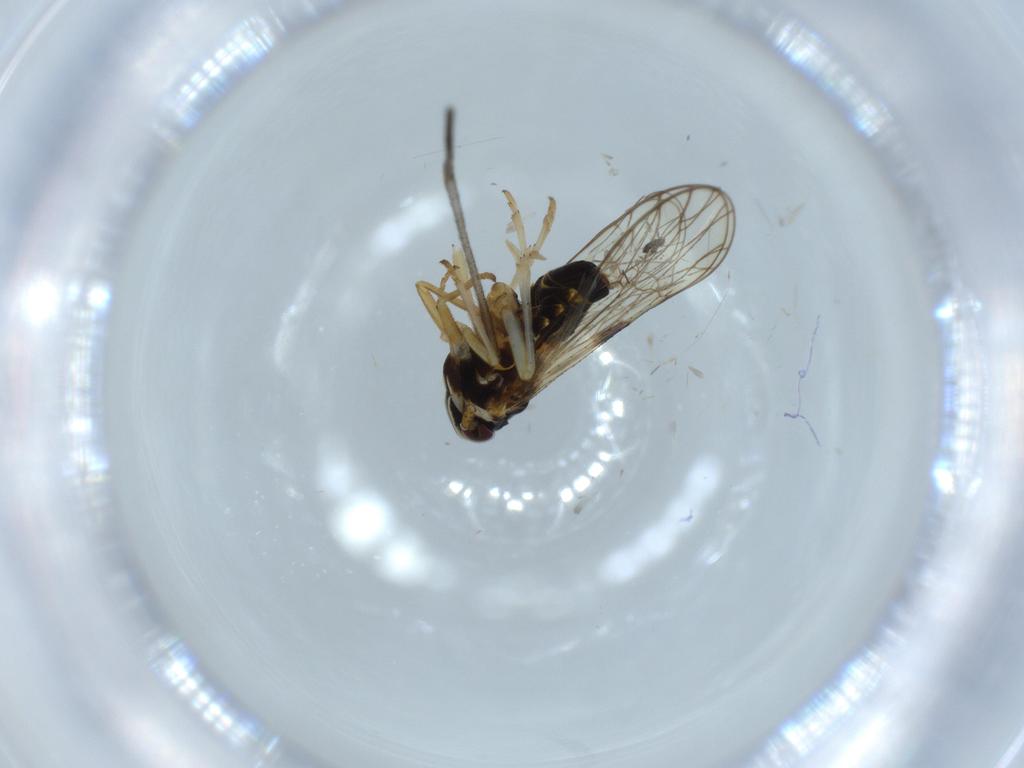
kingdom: Animalia
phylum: Arthropoda
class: Insecta
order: Diptera
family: Sciaridae
